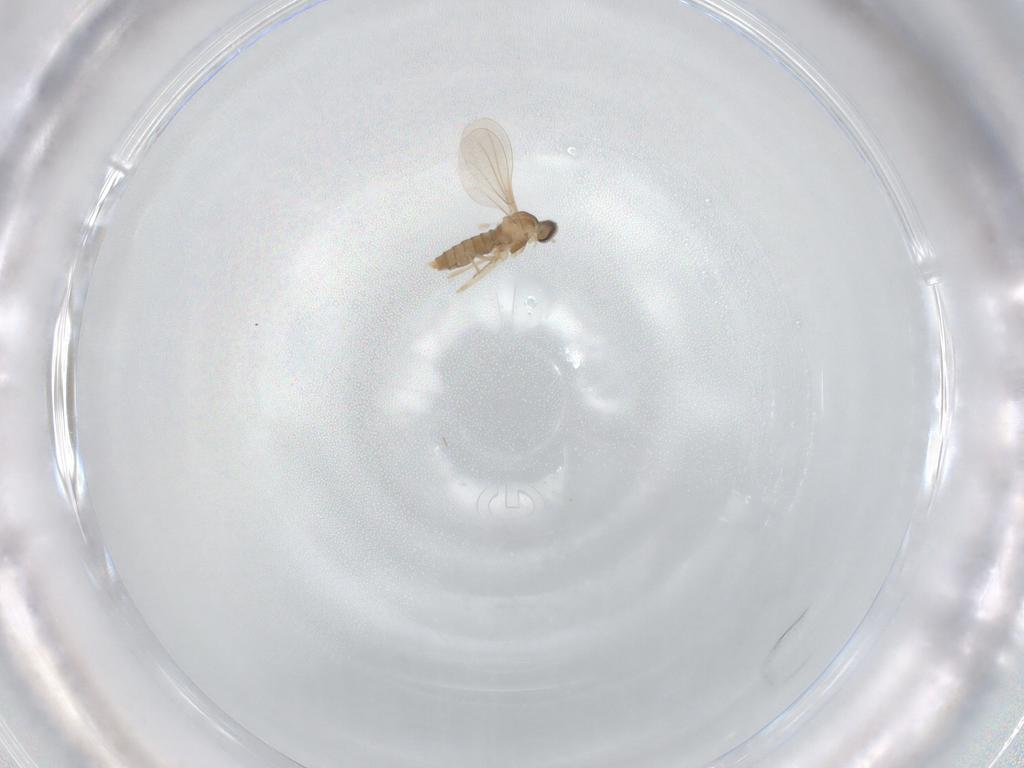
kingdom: Animalia
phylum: Arthropoda
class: Insecta
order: Diptera
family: Cecidomyiidae
